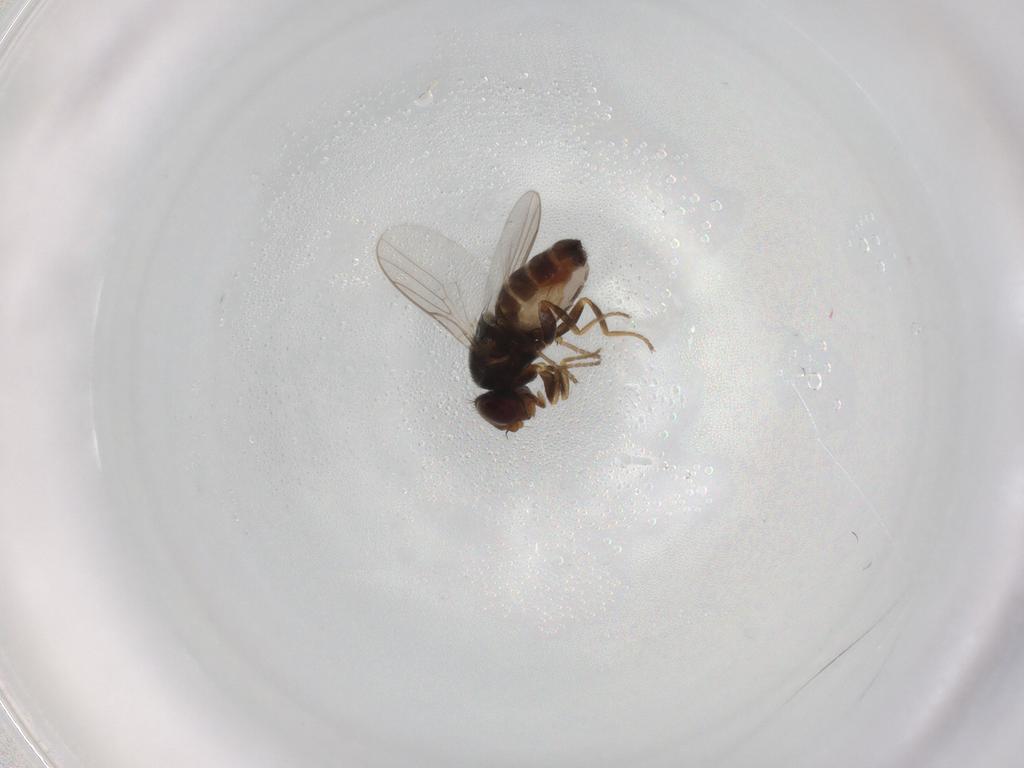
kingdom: Animalia
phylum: Arthropoda
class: Insecta
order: Diptera
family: Chloropidae
